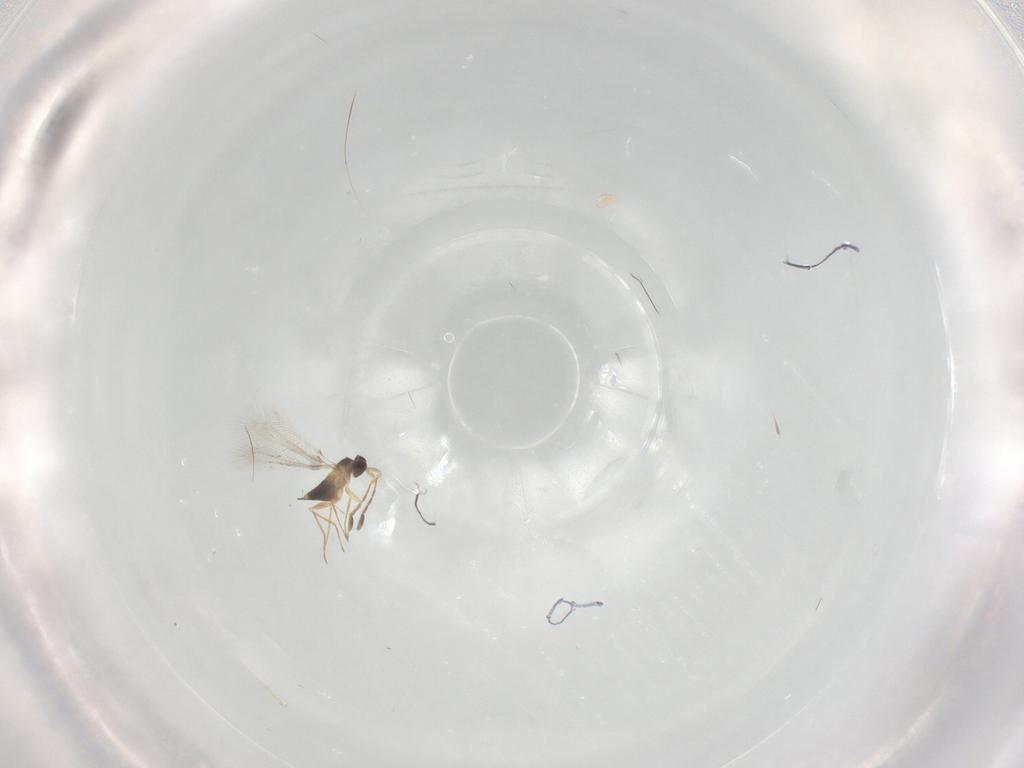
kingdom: Animalia
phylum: Arthropoda
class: Insecta
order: Hymenoptera
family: Mymaridae
